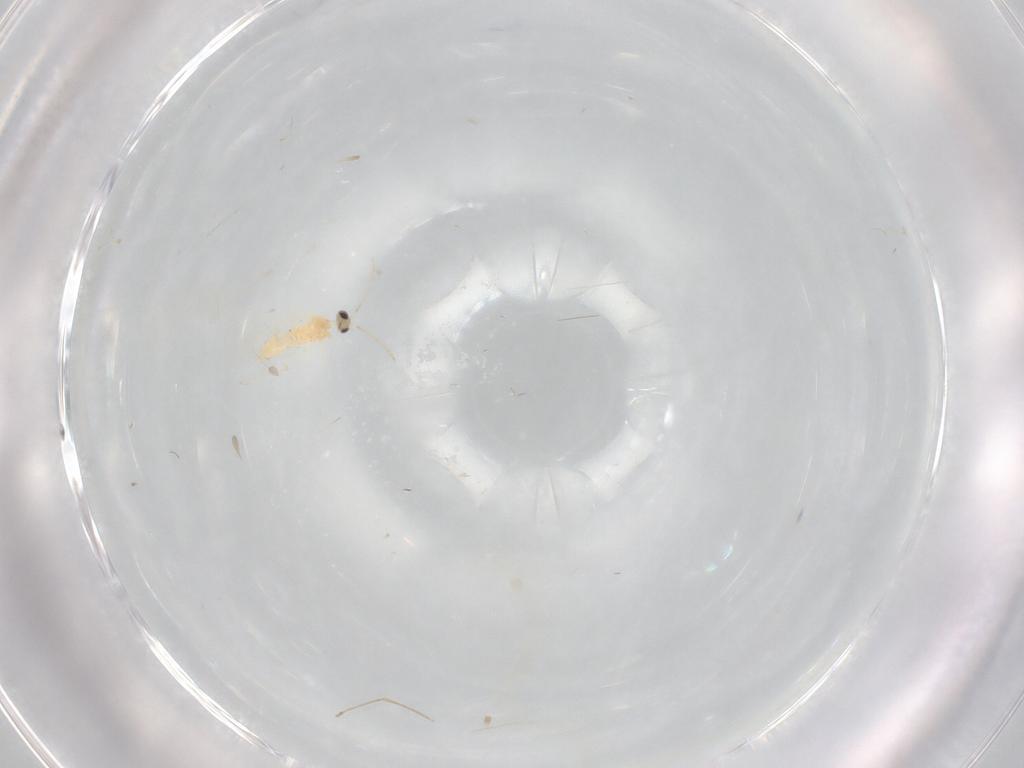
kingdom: Animalia
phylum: Arthropoda
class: Insecta
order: Diptera
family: Cecidomyiidae
